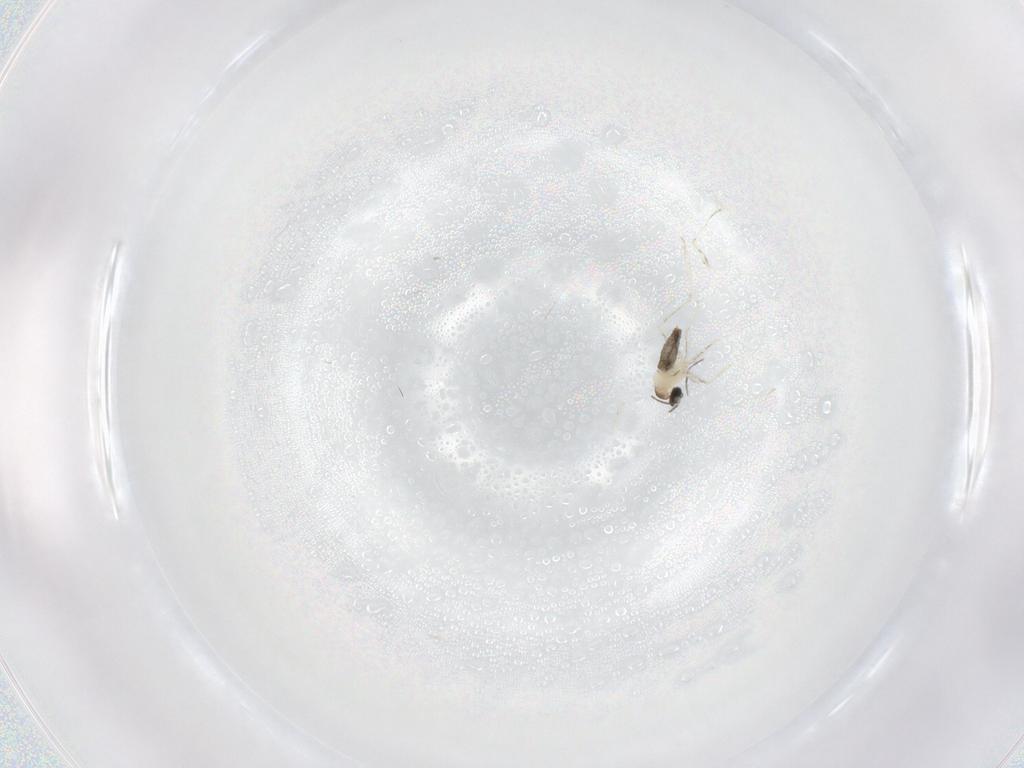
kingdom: Animalia
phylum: Arthropoda
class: Insecta
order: Diptera
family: Cecidomyiidae
